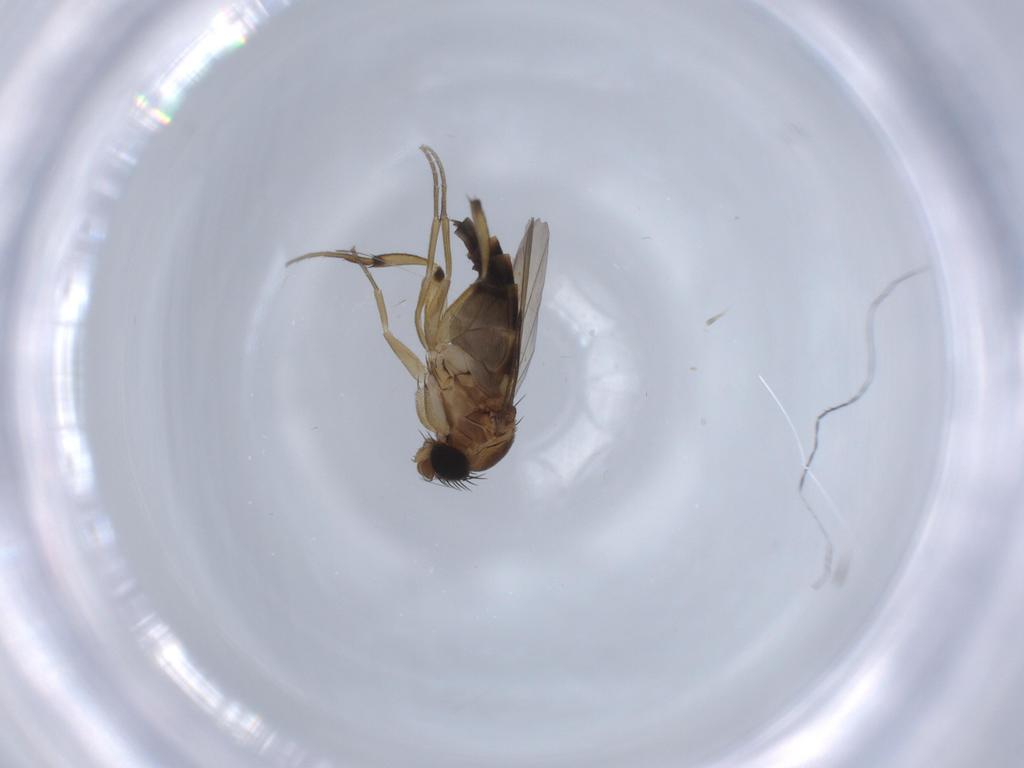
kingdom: Animalia
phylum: Arthropoda
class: Insecta
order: Diptera
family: Phoridae
